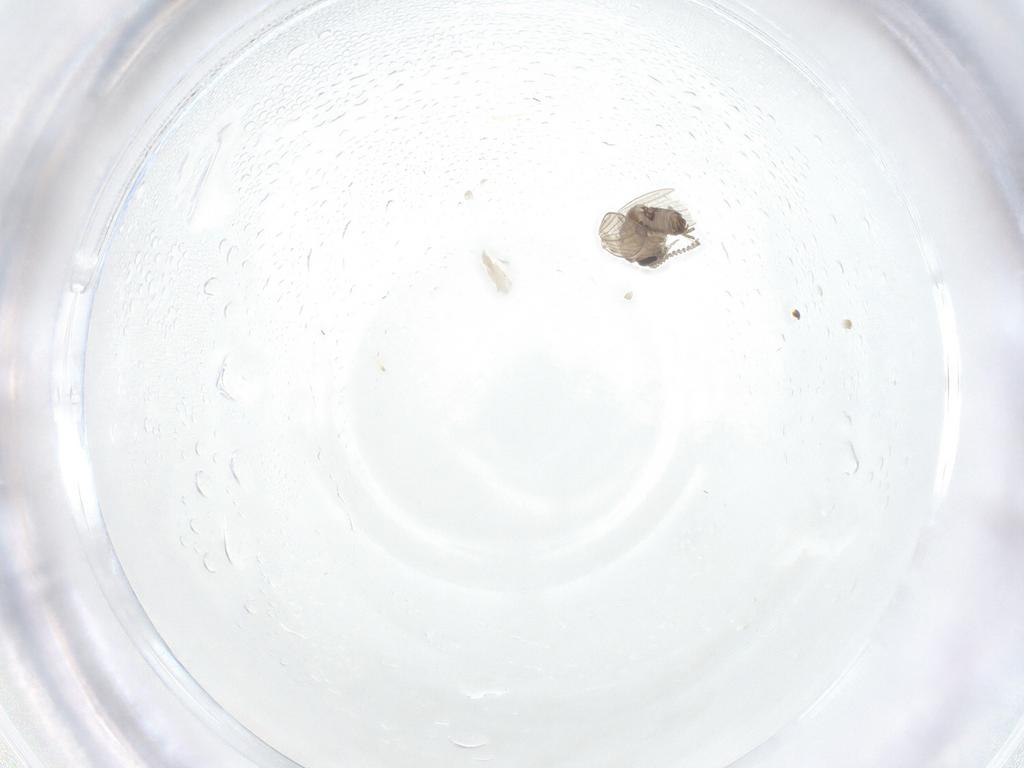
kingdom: Animalia
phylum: Arthropoda
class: Insecta
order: Diptera
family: Psychodidae
